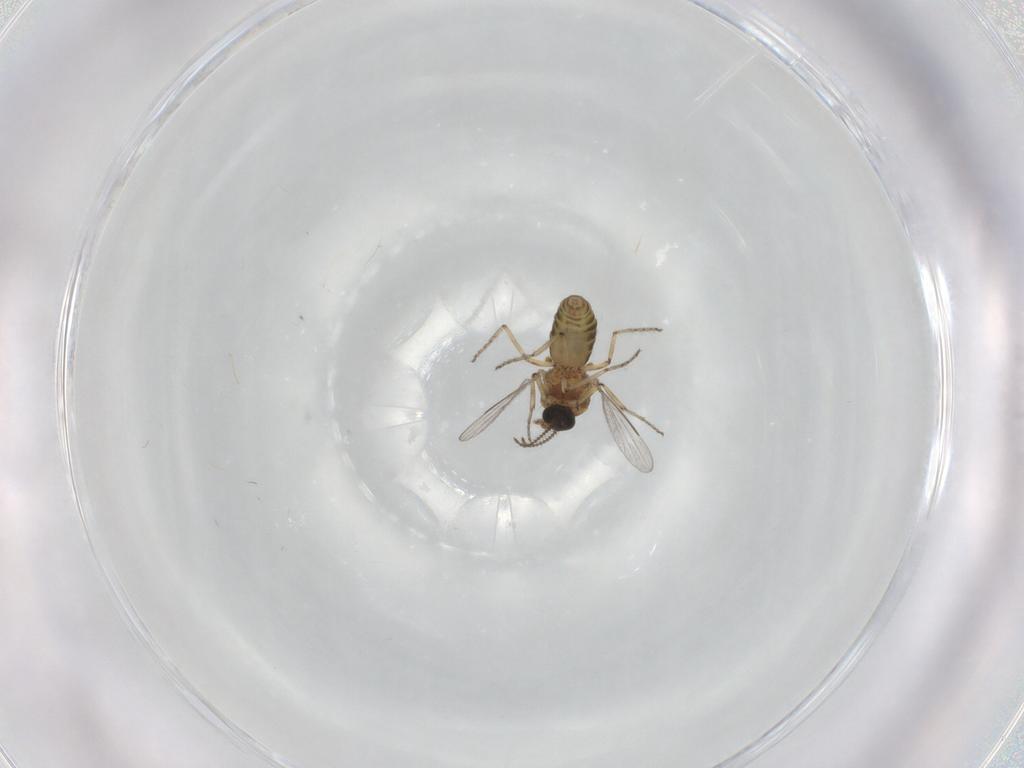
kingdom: Animalia
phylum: Arthropoda
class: Insecta
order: Diptera
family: Ceratopogonidae
